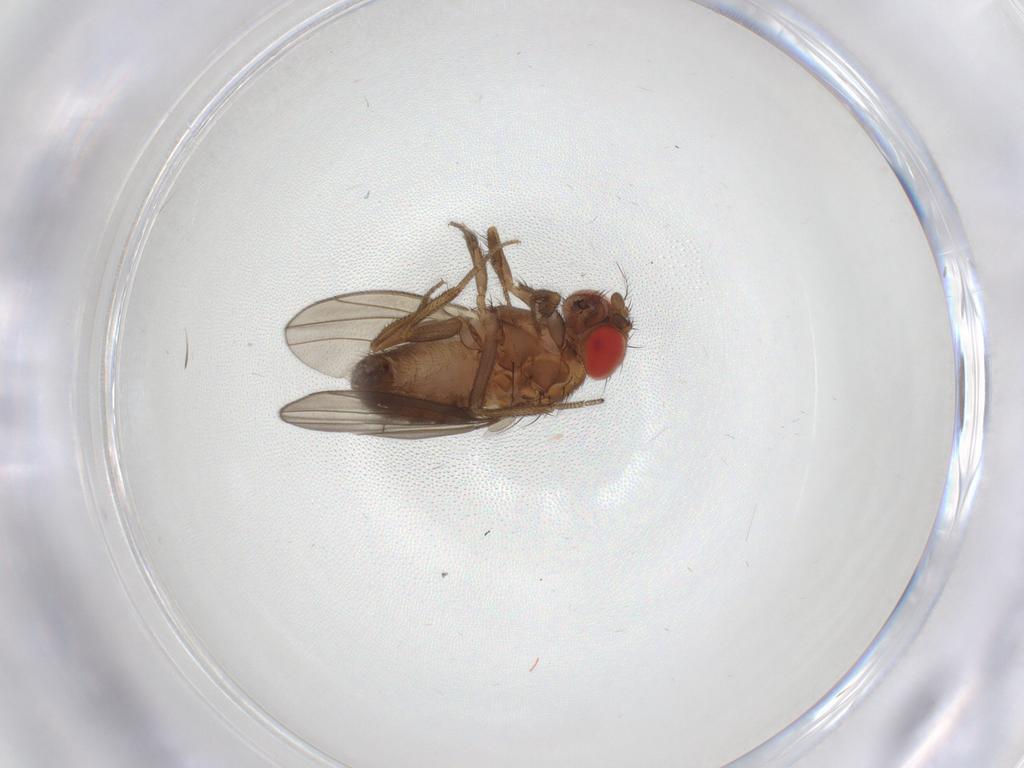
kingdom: Animalia
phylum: Arthropoda
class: Insecta
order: Diptera
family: Drosophilidae
